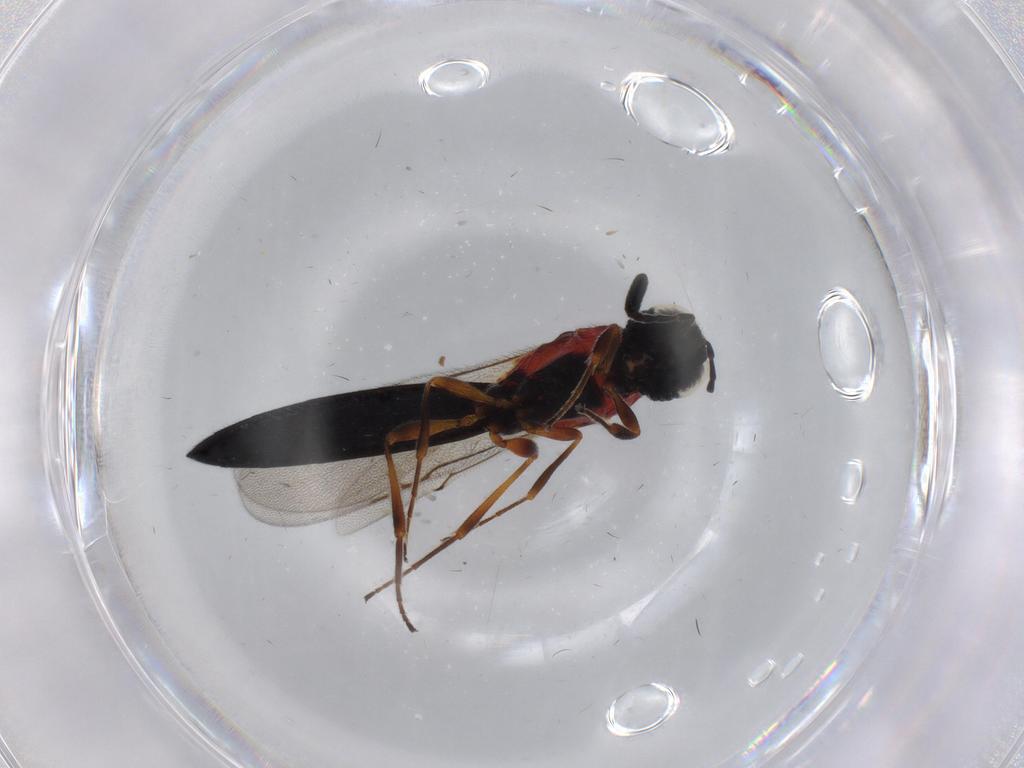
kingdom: Animalia
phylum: Arthropoda
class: Insecta
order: Hymenoptera
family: Scelionidae
